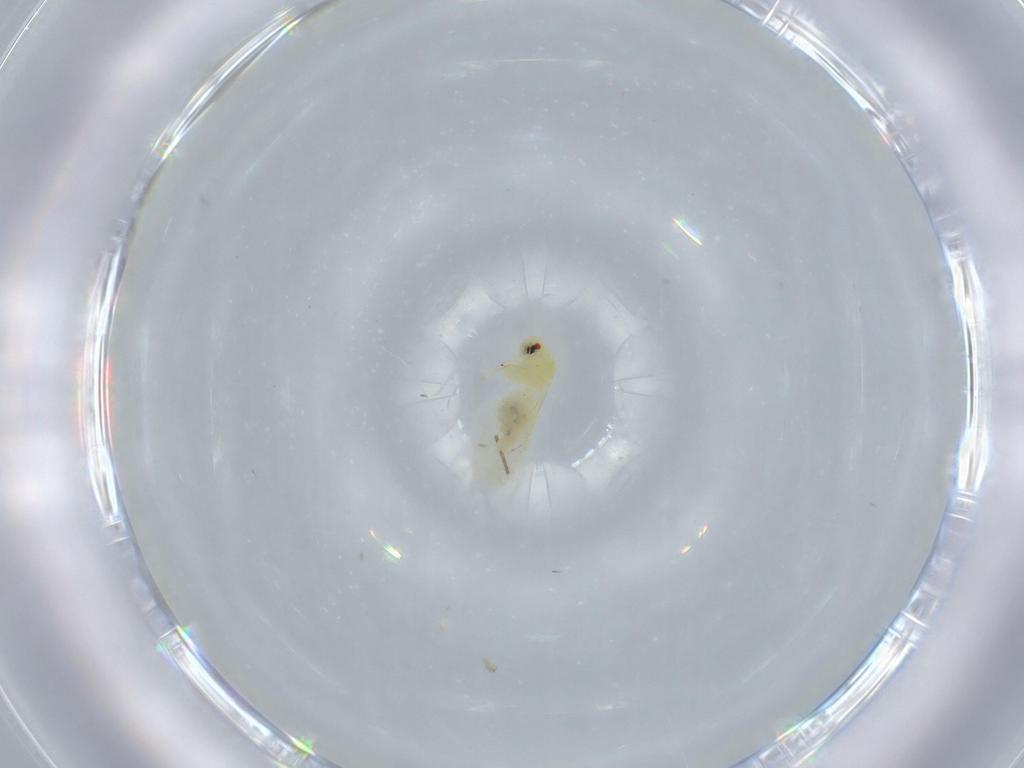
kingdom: Animalia
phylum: Arthropoda
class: Insecta
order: Hemiptera
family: Aleyrodidae
